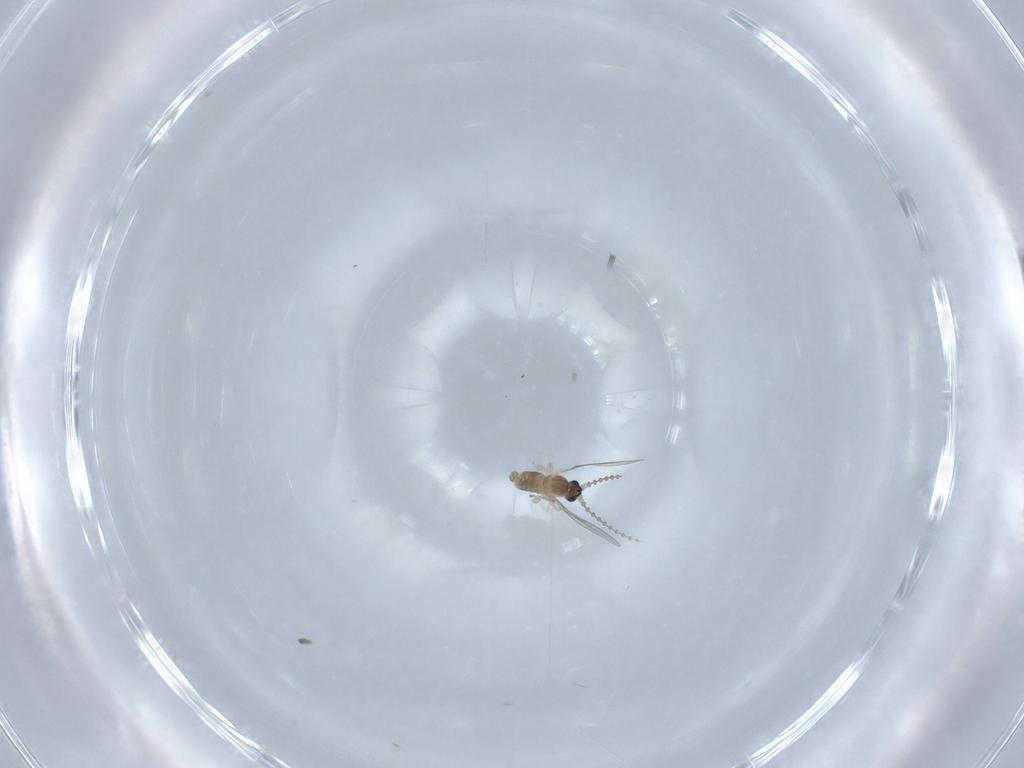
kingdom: Animalia
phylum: Arthropoda
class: Insecta
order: Diptera
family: Cecidomyiidae
